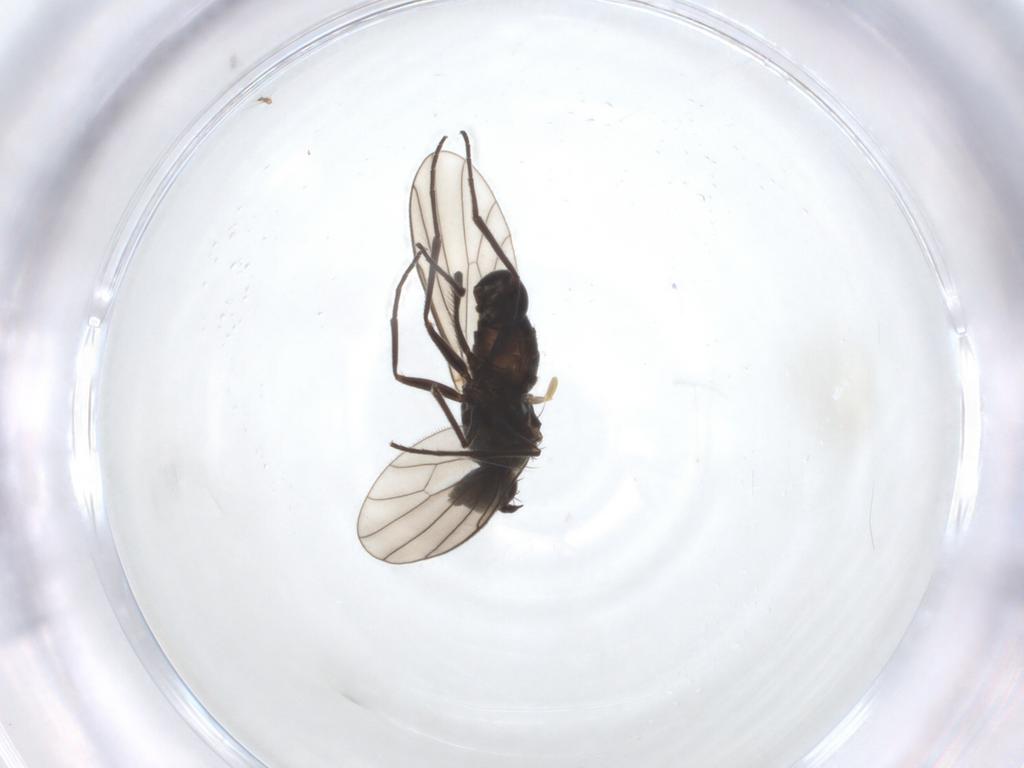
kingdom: Animalia
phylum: Arthropoda
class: Insecta
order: Diptera
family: Chironomidae
